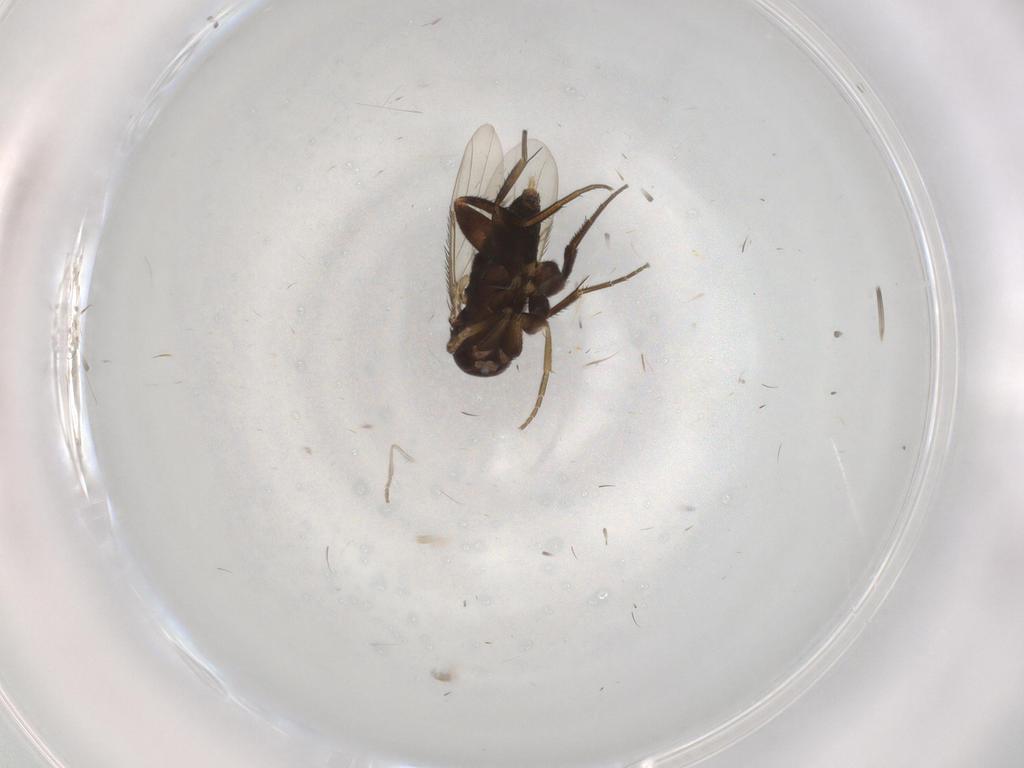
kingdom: Animalia
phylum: Arthropoda
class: Insecta
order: Diptera
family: Phoridae
